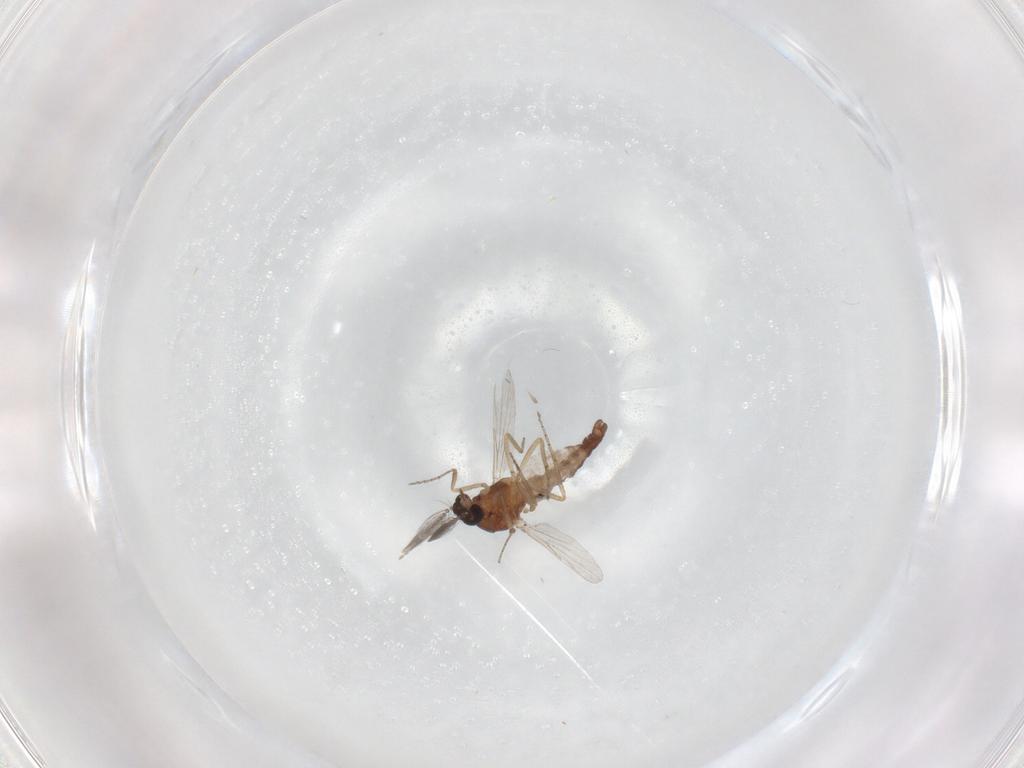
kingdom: Animalia
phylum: Arthropoda
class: Insecta
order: Diptera
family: Ceratopogonidae
